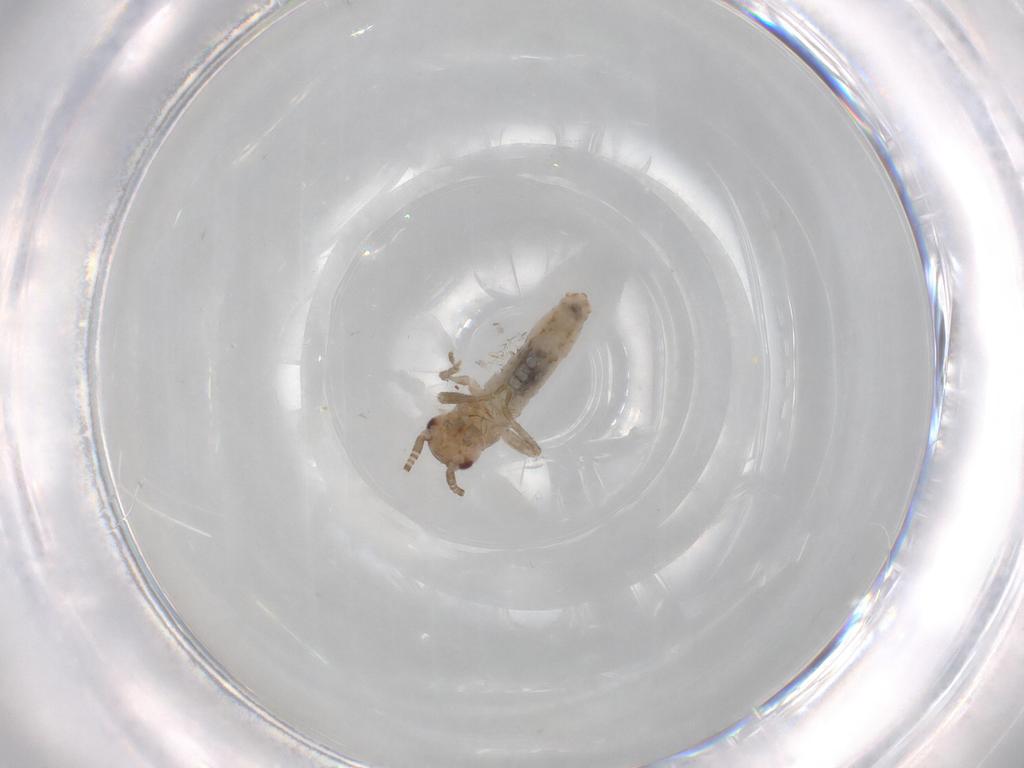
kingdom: Animalia
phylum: Arthropoda
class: Insecta
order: Orthoptera
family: Gryllidae
